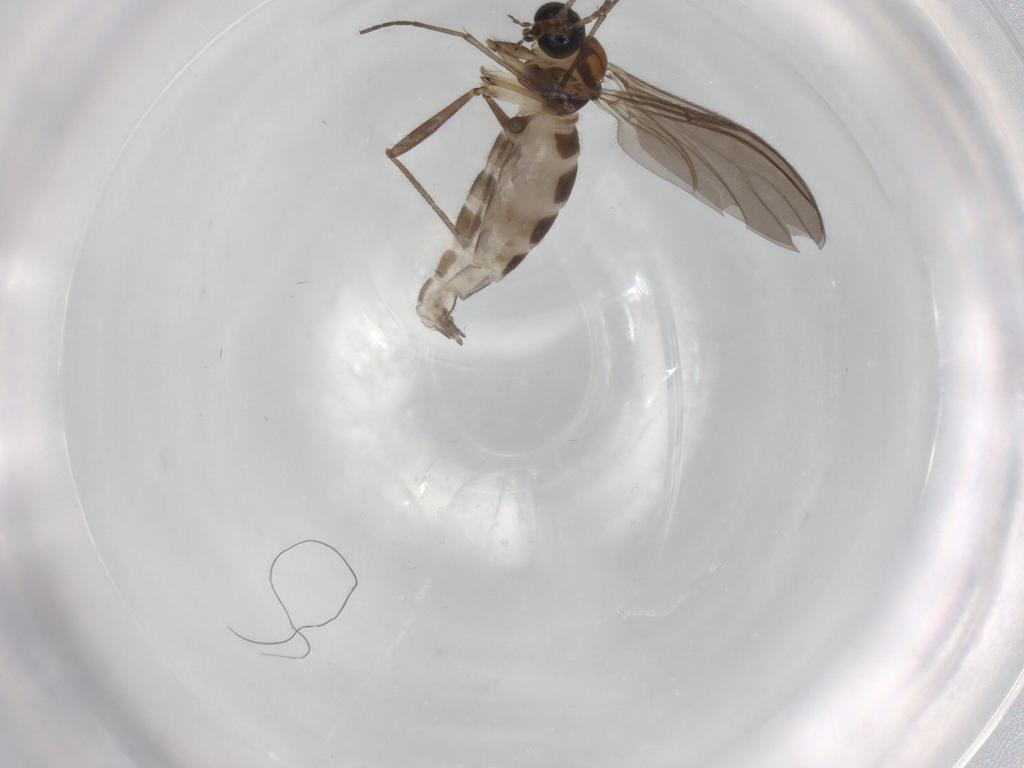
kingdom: Animalia
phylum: Arthropoda
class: Insecta
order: Diptera
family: Sciaridae
